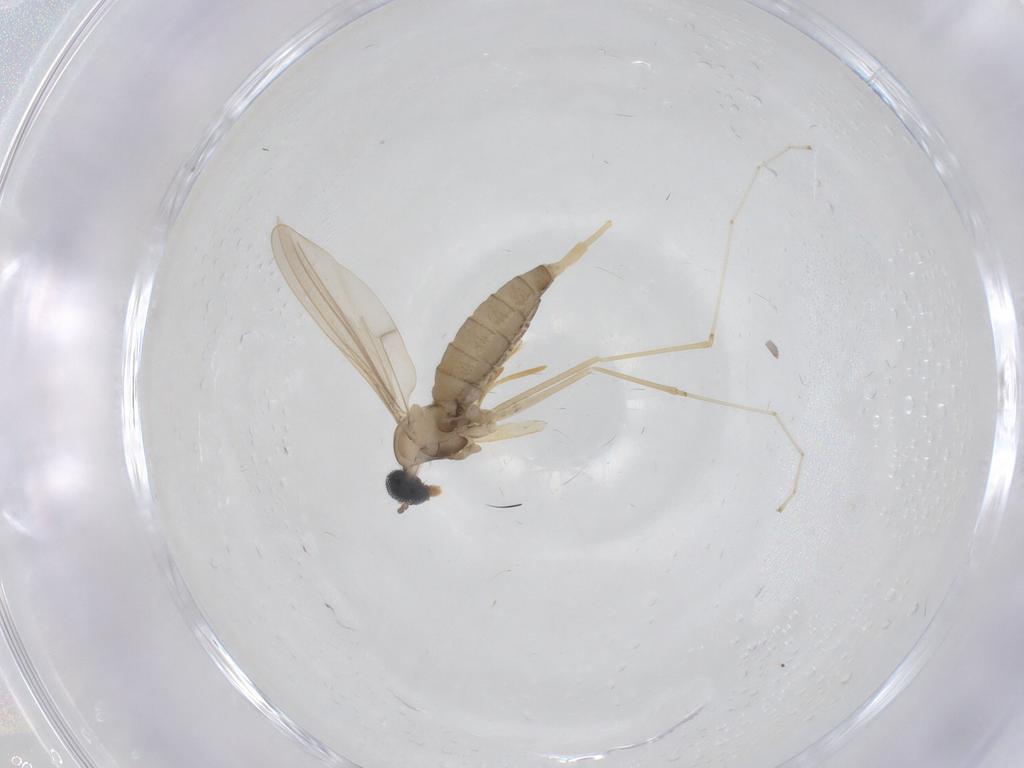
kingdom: Animalia
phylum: Arthropoda
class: Insecta
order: Diptera
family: Cecidomyiidae
